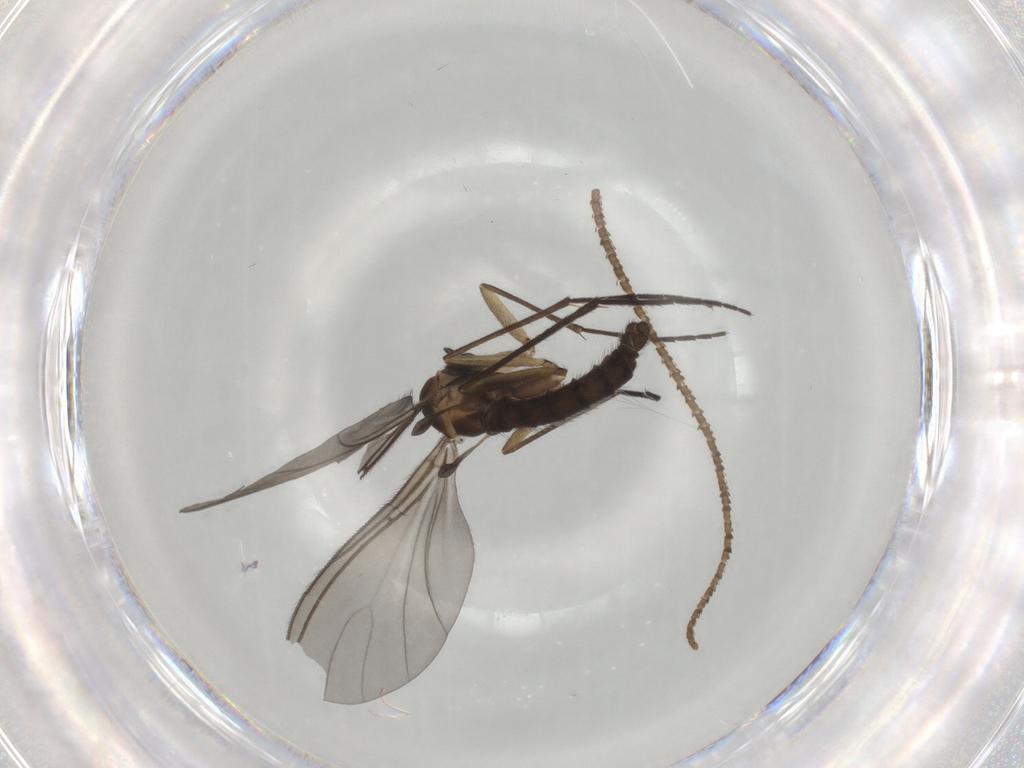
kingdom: Animalia
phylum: Arthropoda
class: Insecta
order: Diptera
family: Sciaridae
